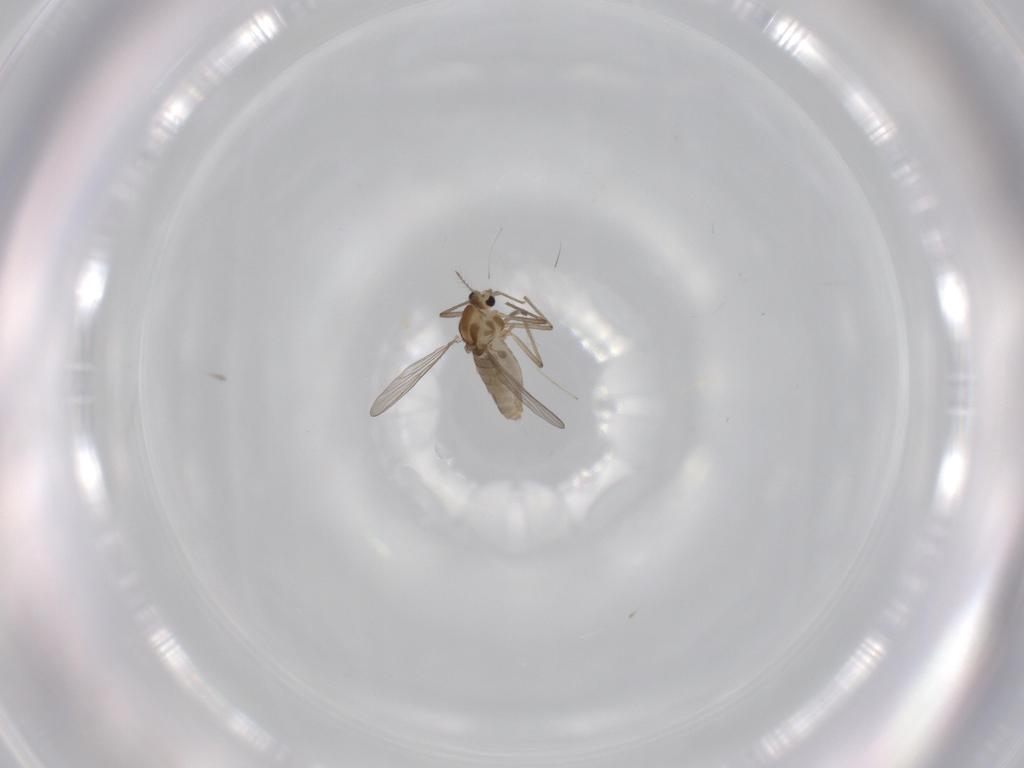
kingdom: Animalia
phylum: Arthropoda
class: Insecta
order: Diptera
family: Chironomidae
